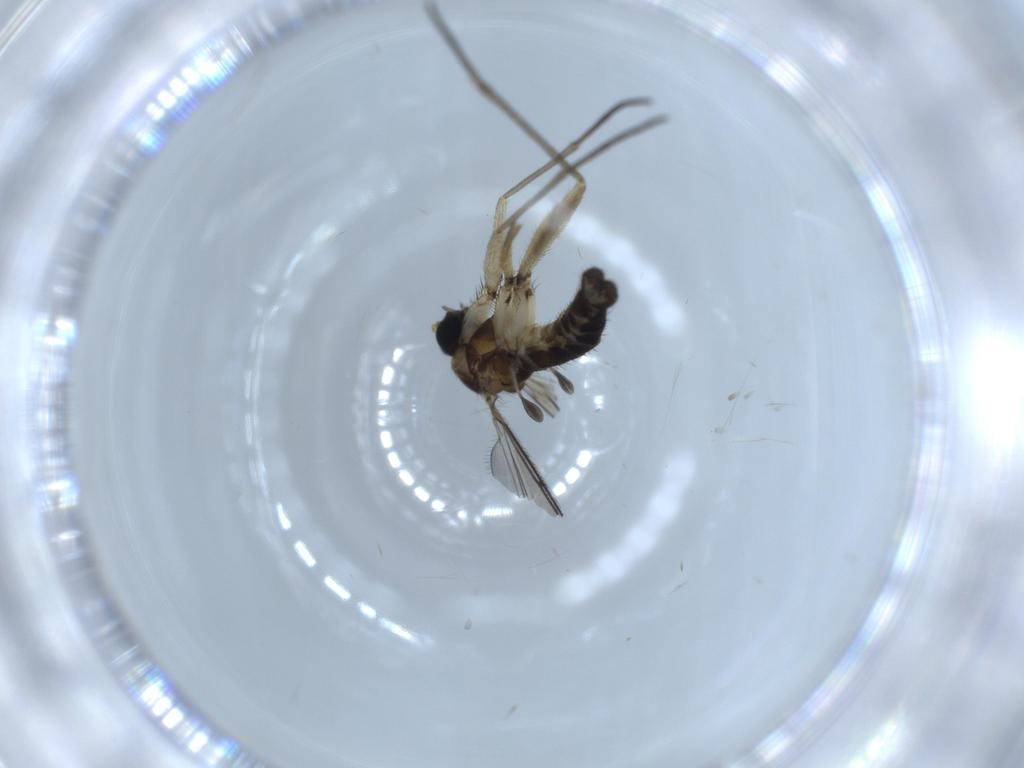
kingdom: Animalia
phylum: Arthropoda
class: Insecta
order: Diptera
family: Sciaridae
